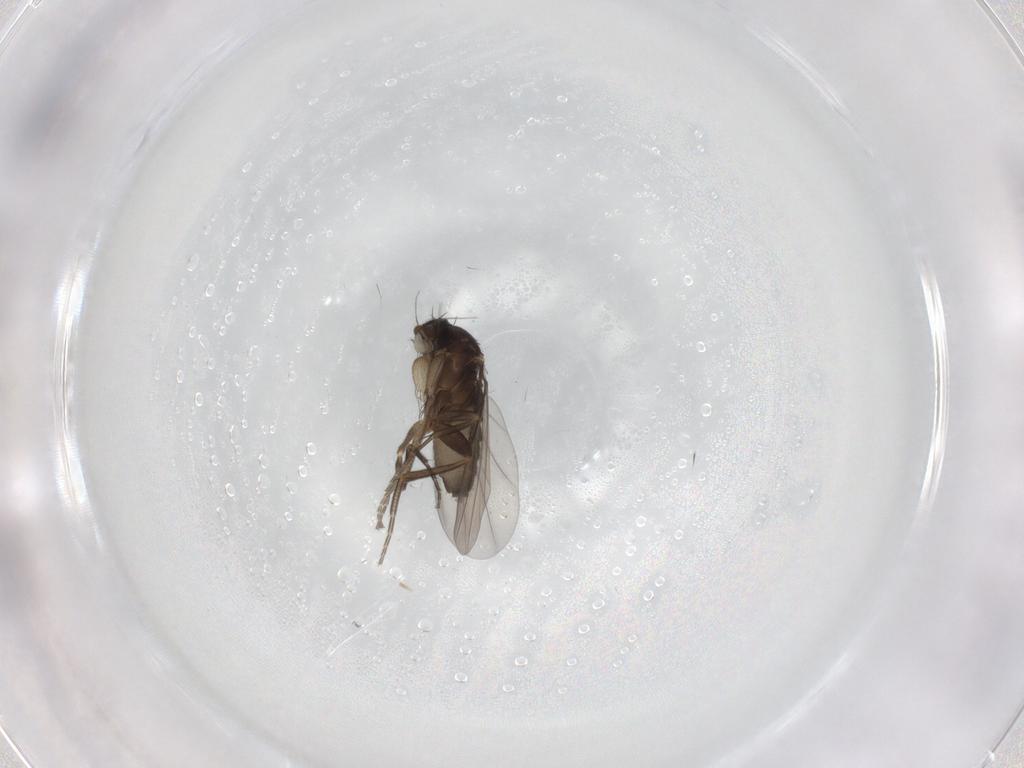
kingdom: Animalia
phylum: Arthropoda
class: Insecta
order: Diptera
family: Phoridae
